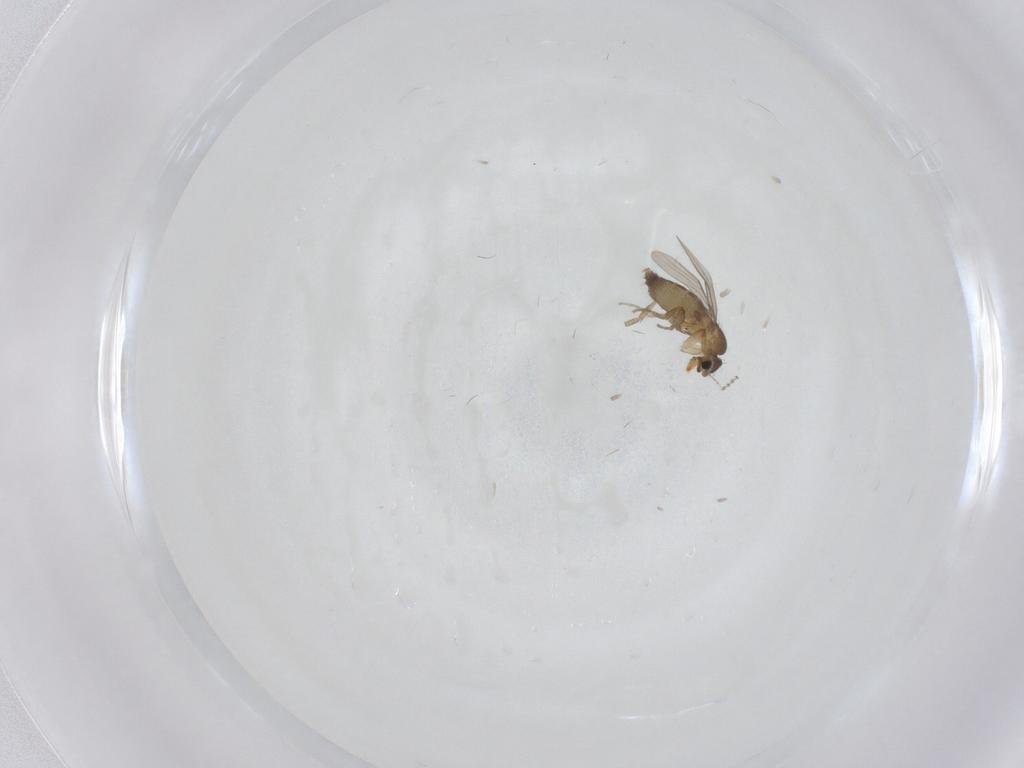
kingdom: Animalia
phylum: Arthropoda
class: Insecta
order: Diptera
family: Phoridae
